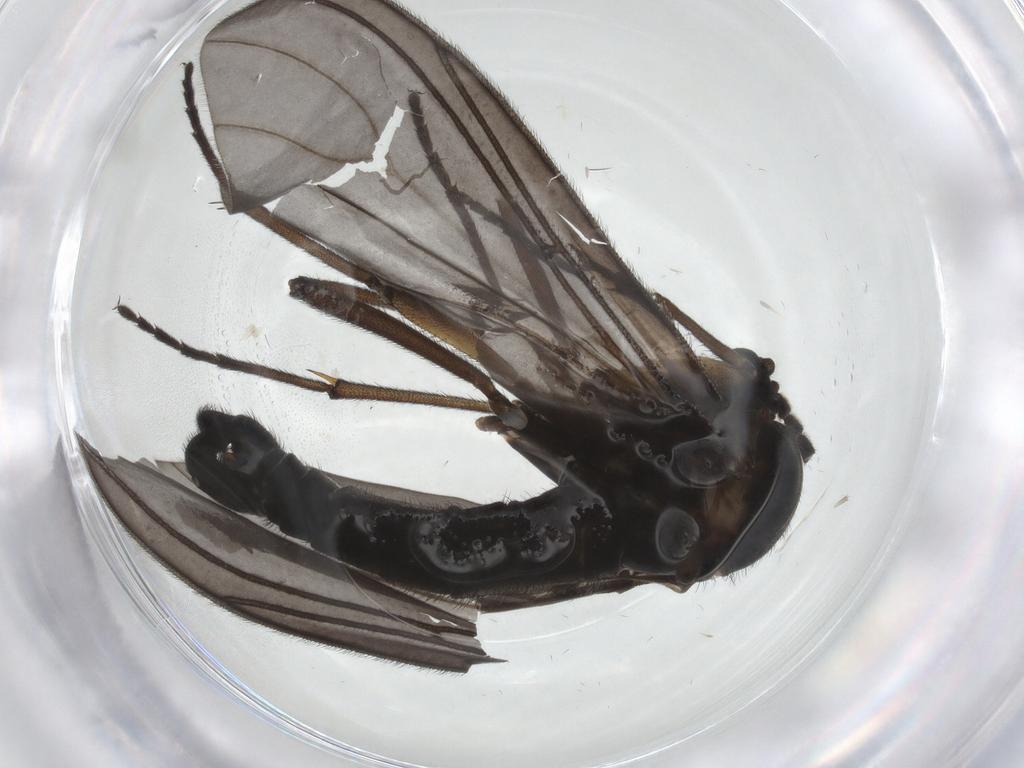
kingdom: Animalia
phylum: Arthropoda
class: Insecta
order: Diptera
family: Sciaridae
